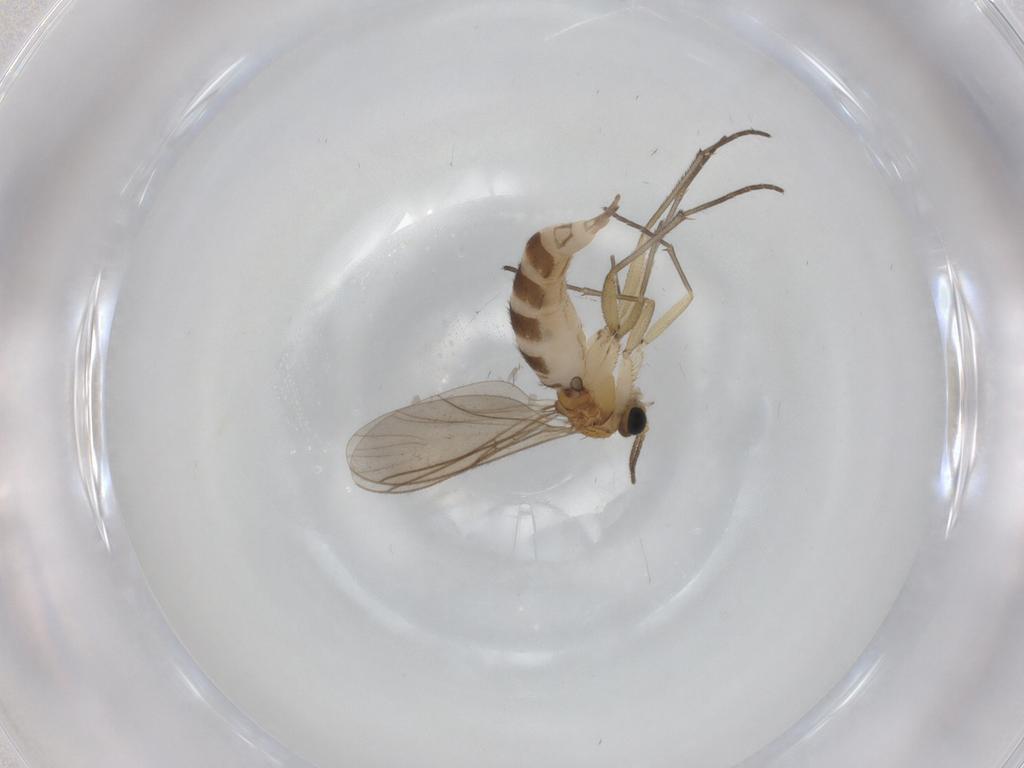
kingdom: Animalia
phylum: Arthropoda
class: Insecta
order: Diptera
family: Sciaridae
